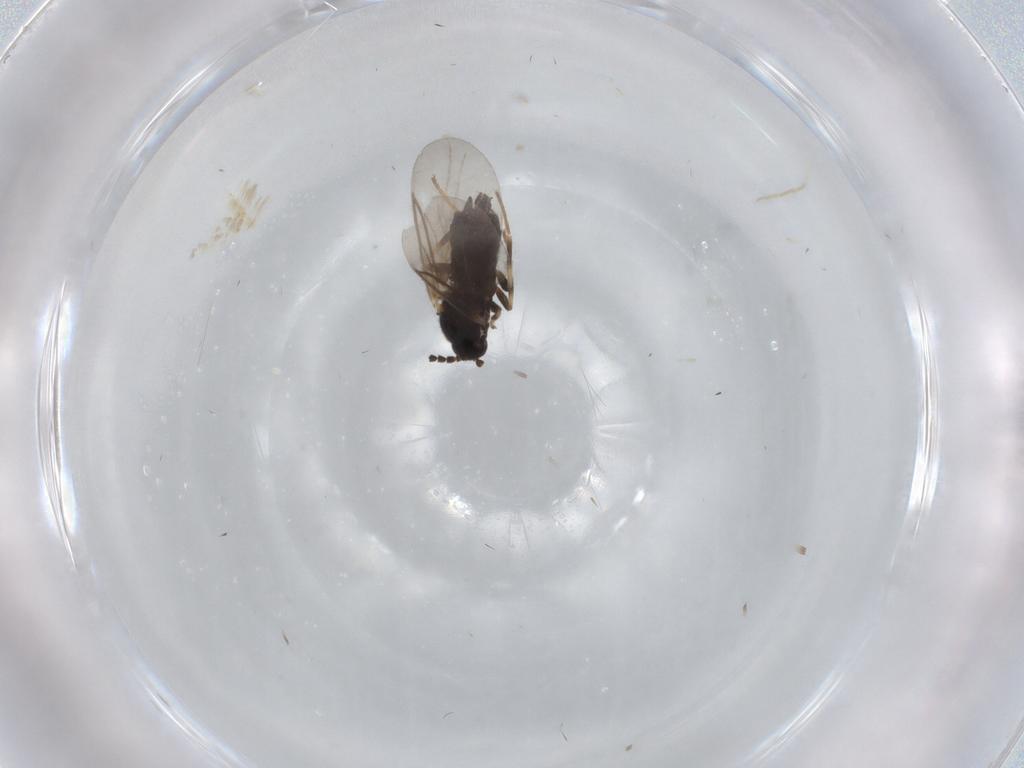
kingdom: Animalia
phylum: Arthropoda
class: Insecta
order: Diptera
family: Scatopsidae
